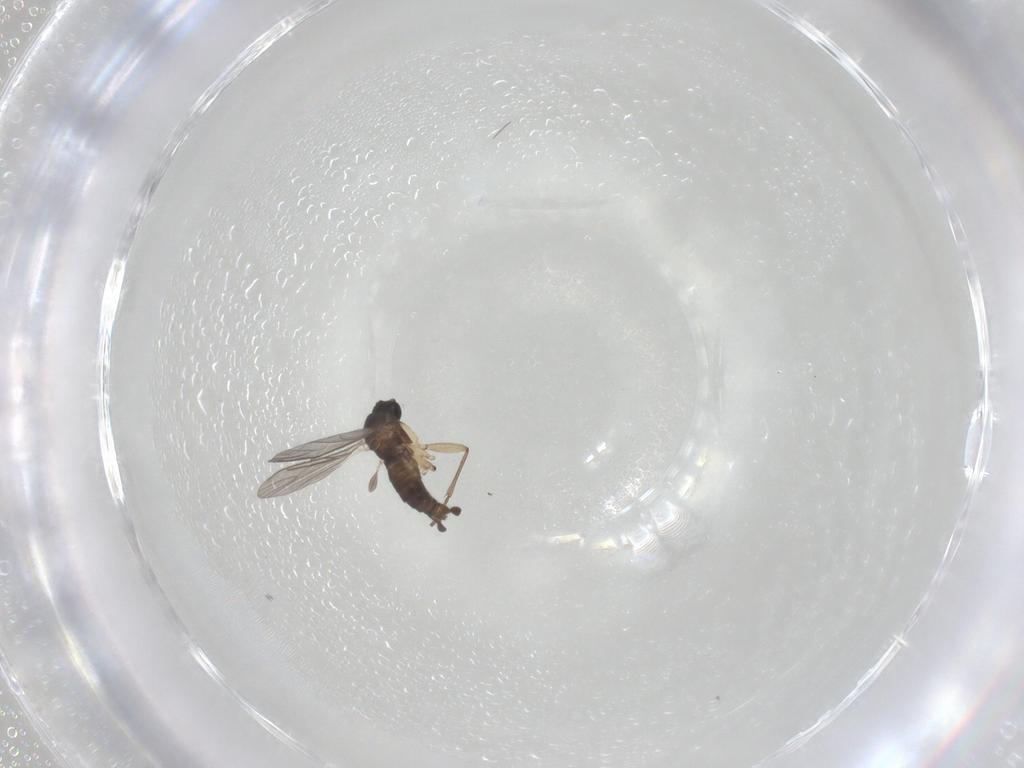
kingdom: Animalia
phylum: Arthropoda
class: Insecta
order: Diptera
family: Sciaridae
